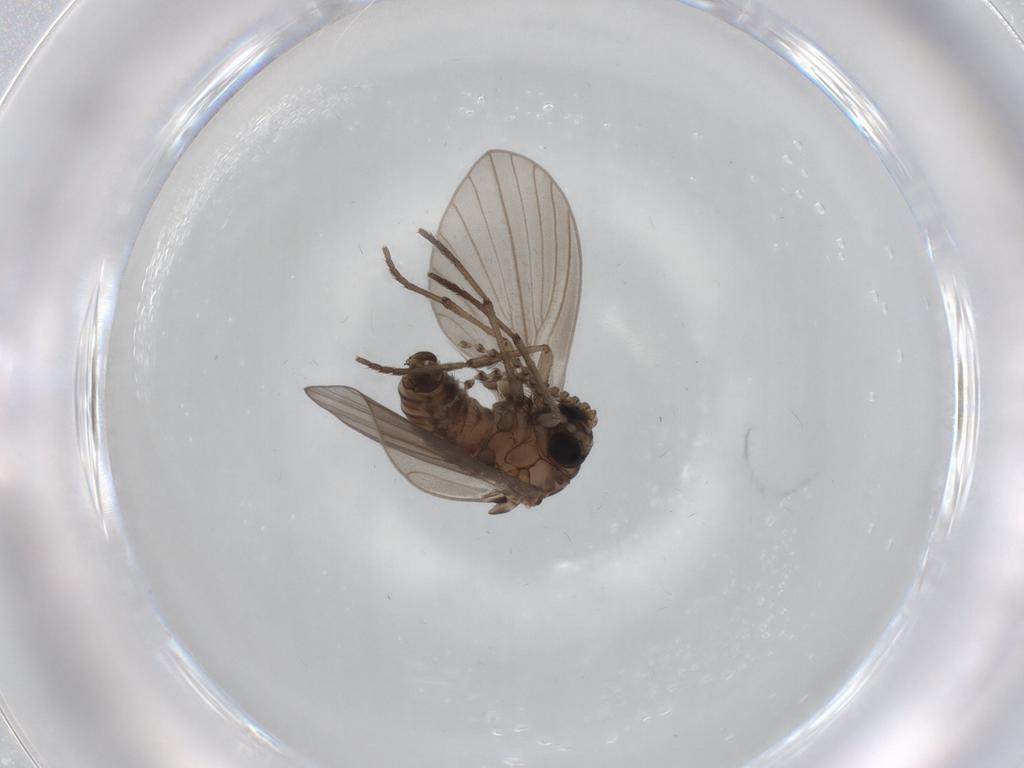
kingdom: Animalia
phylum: Arthropoda
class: Insecta
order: Diptera
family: Psychodidae
